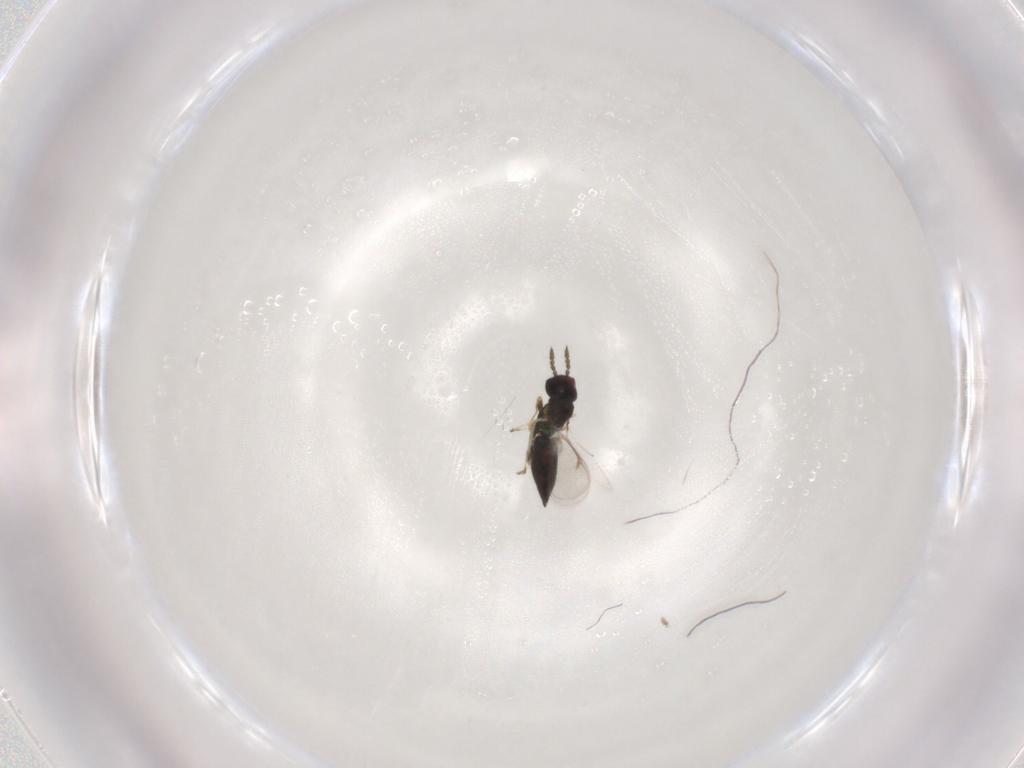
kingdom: Animalia
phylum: Arthropoda
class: Insecta
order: Hymenoptera
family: Eulophidae
